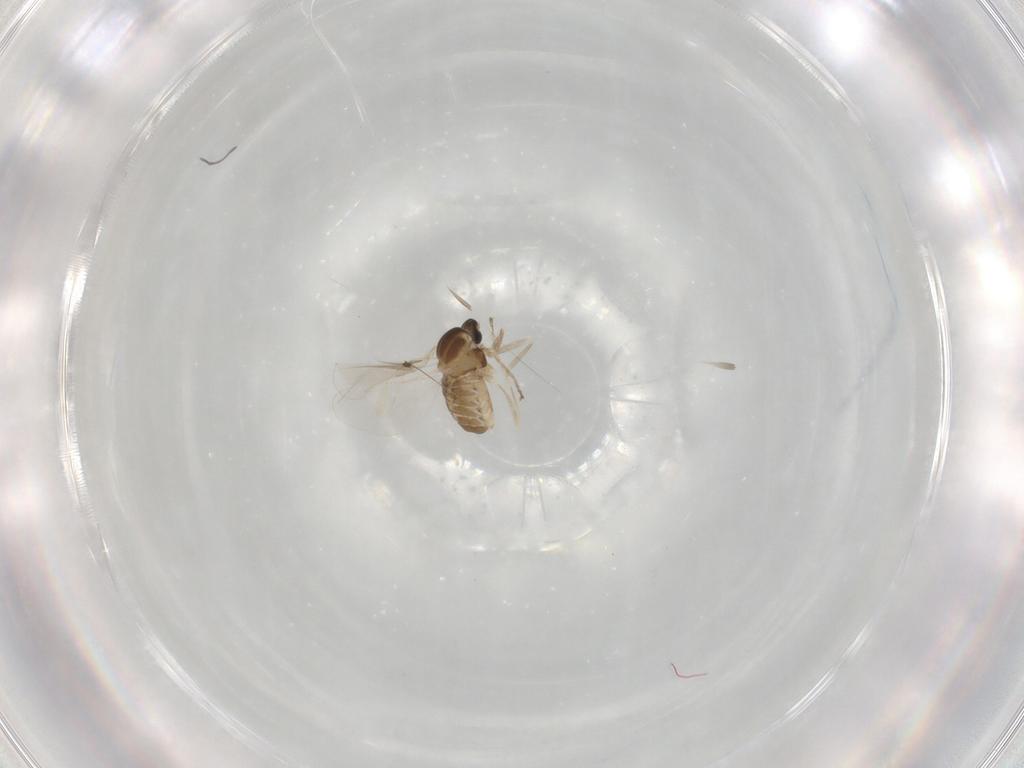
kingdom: Animalia
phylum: Arthropoda
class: Insecta
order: Diptera
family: Cecidomyiidae
